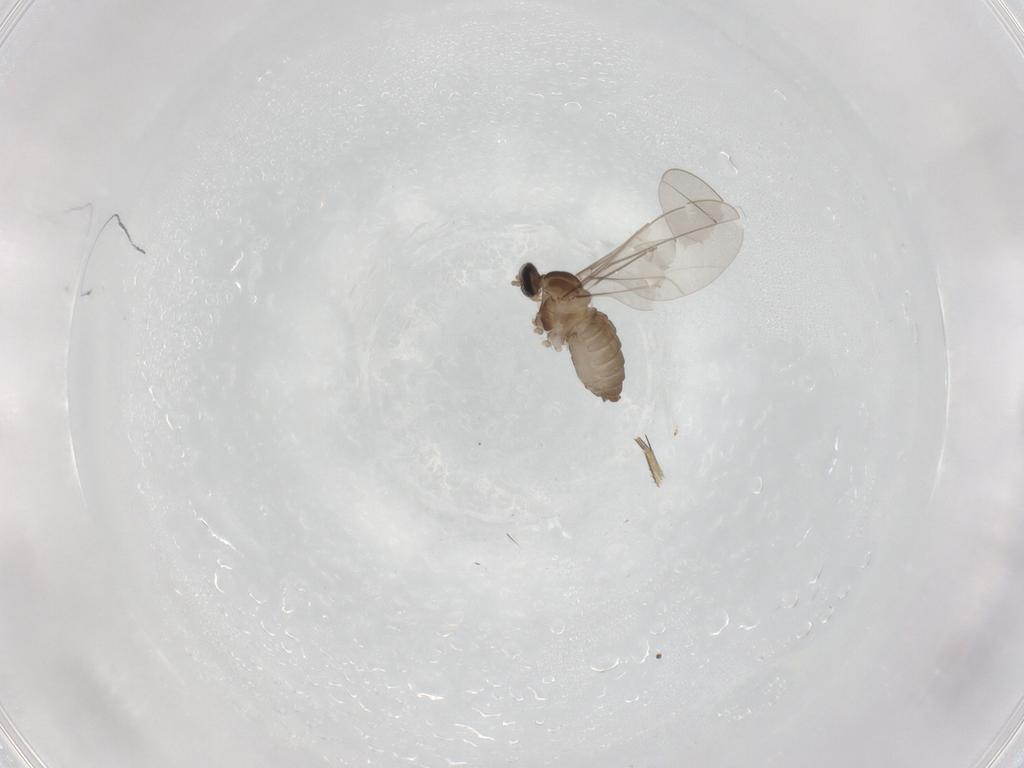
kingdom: Animalia
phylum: Arthropoda
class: Insecta
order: Diptera
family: Cecidomyiidae
